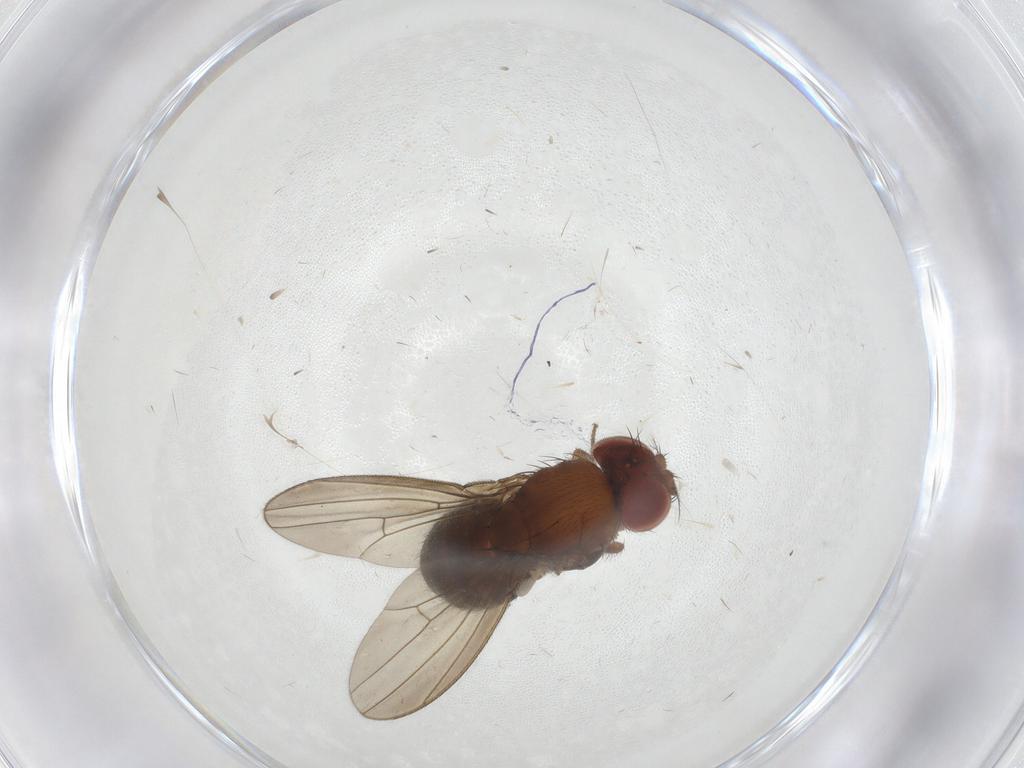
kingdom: Animalia
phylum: Arthropoda
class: Insecta
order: Diptera
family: Drosophilidae
